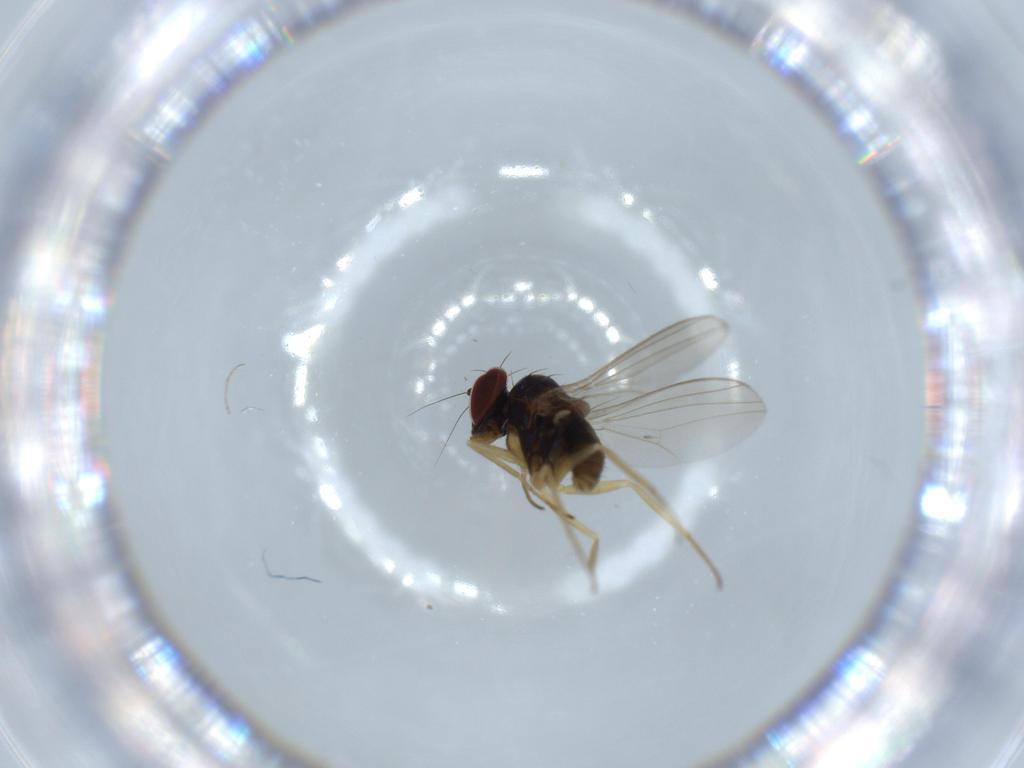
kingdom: Animalia
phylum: Arthropoda
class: Insecta
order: Diptera
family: Dolichopodidae
